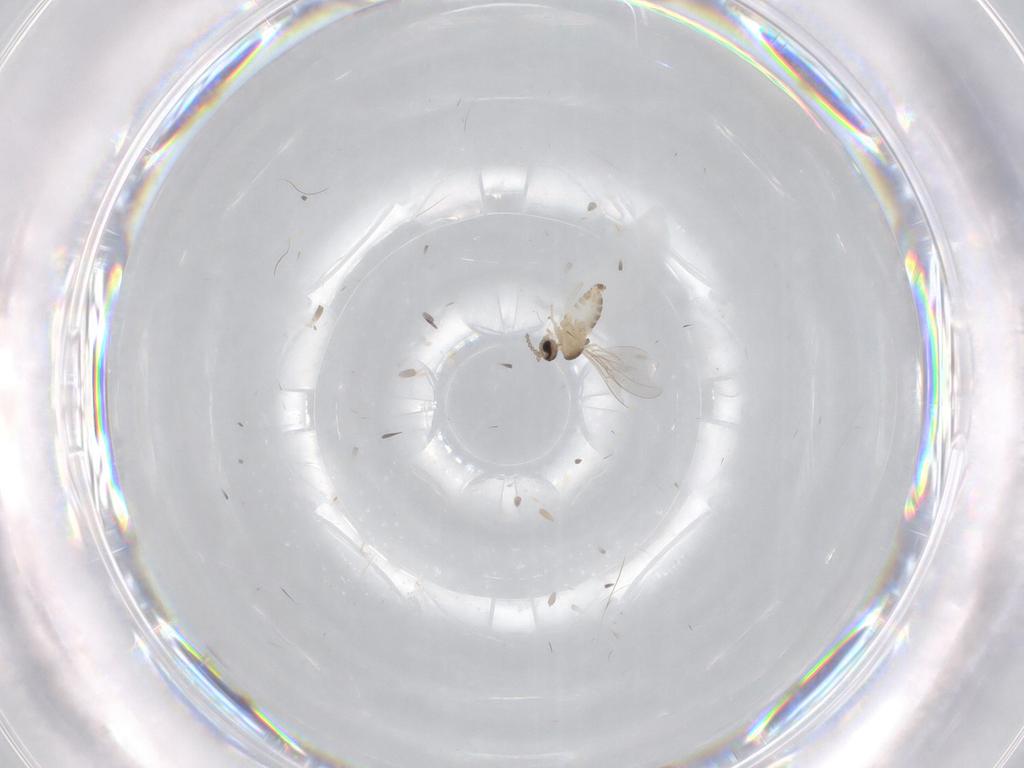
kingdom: Animalia
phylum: Arthropoda
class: Insecta
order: Diptera
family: Cecidomyiidae
